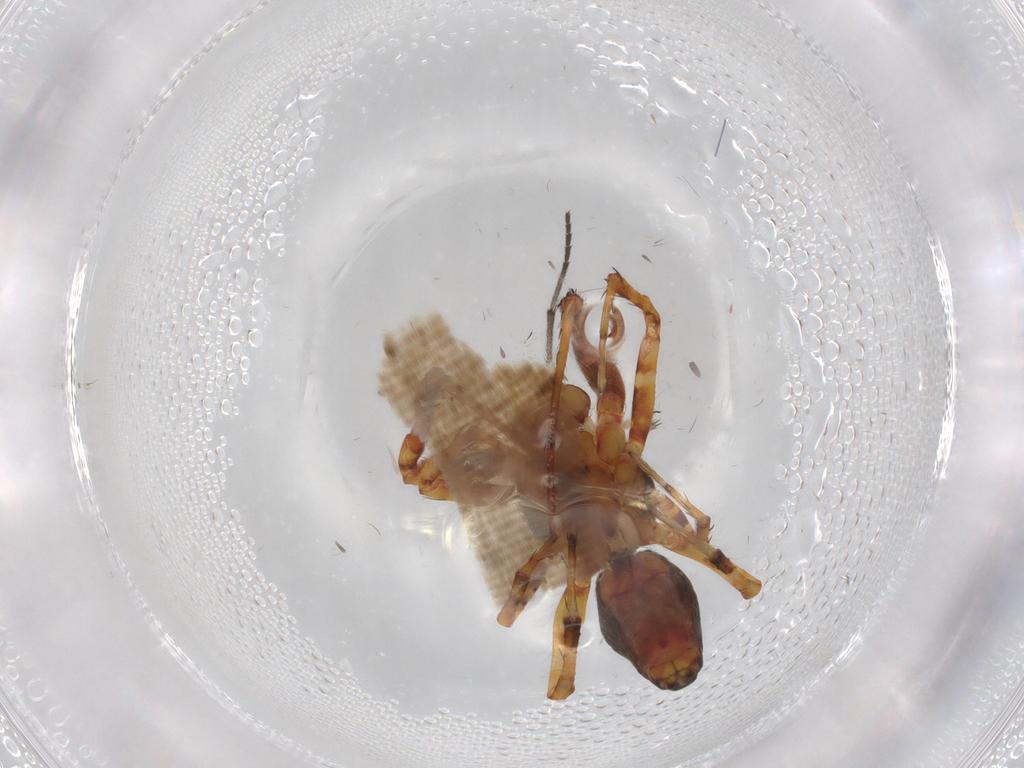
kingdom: Animalia
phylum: Arthropoda
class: Arachnida
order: Araneae
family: Uloboridae
